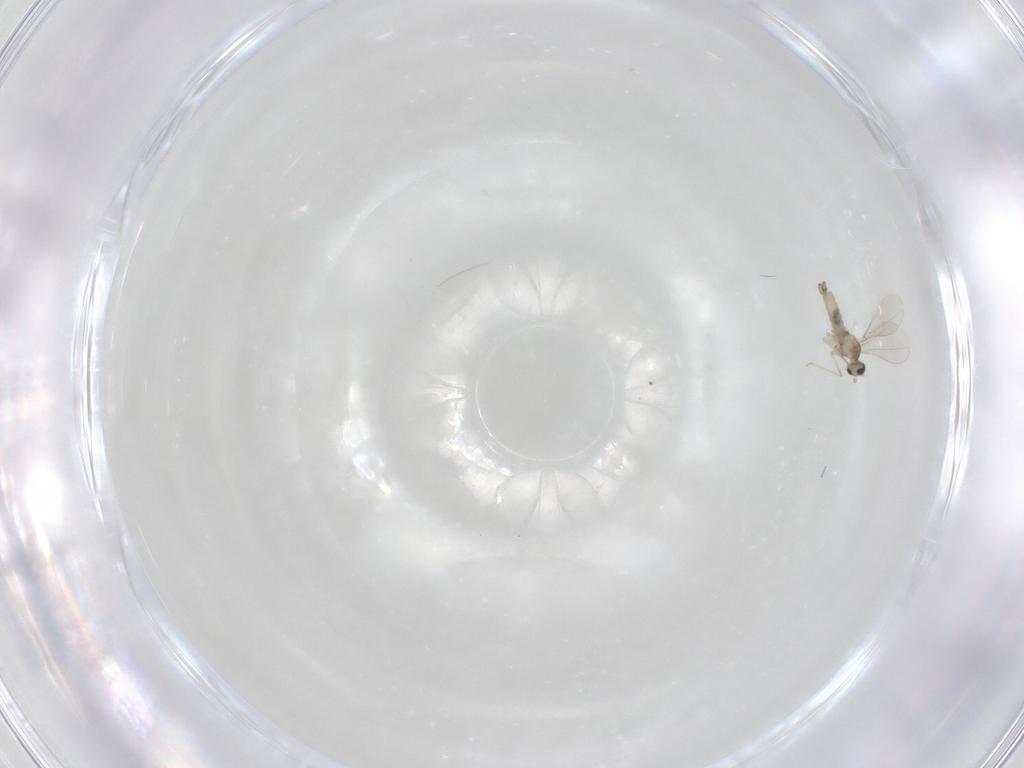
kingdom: Animalia
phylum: Arthropoda
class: Insecta
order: Diptera
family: Cecidomyiidae
